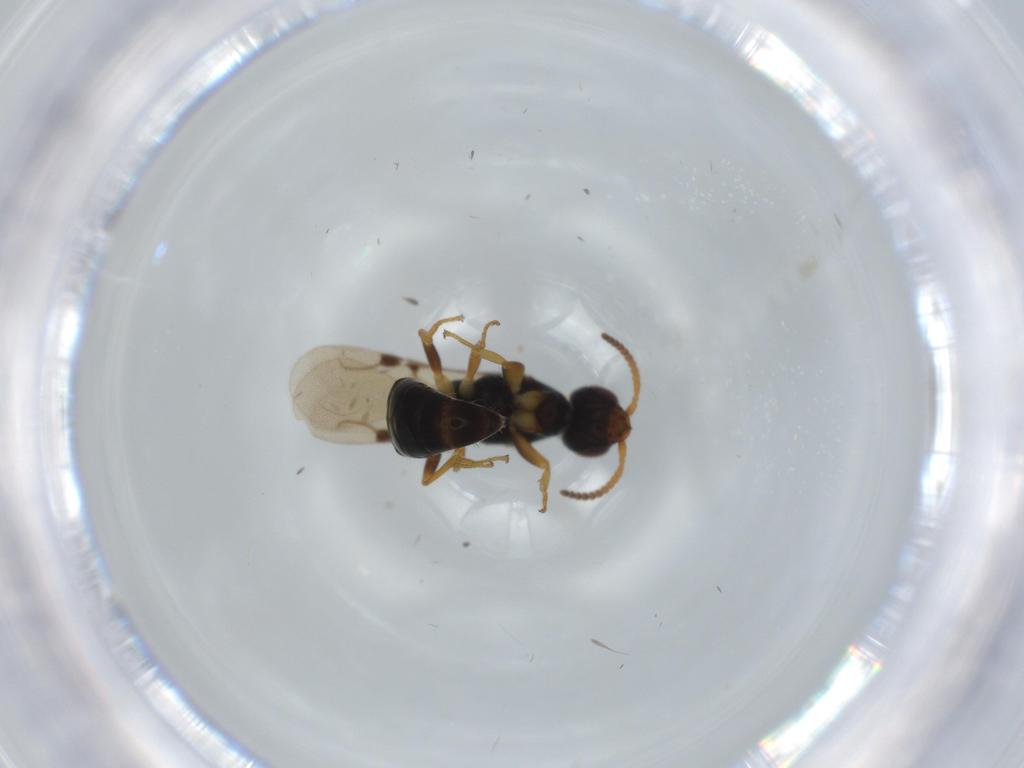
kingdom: Animalia
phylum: Arthropoda
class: Insecta
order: Hymenoptera
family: Bethylidae
